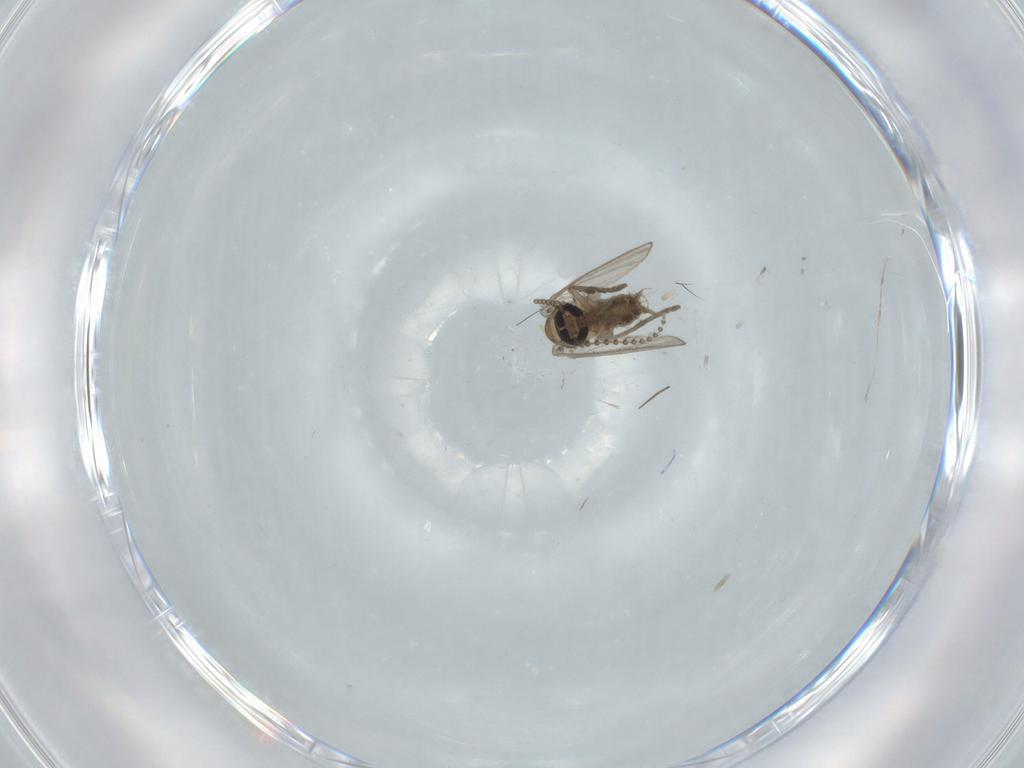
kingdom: Animalia
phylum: Arthropoda
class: Insecta
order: Diptera
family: Psychodidae
